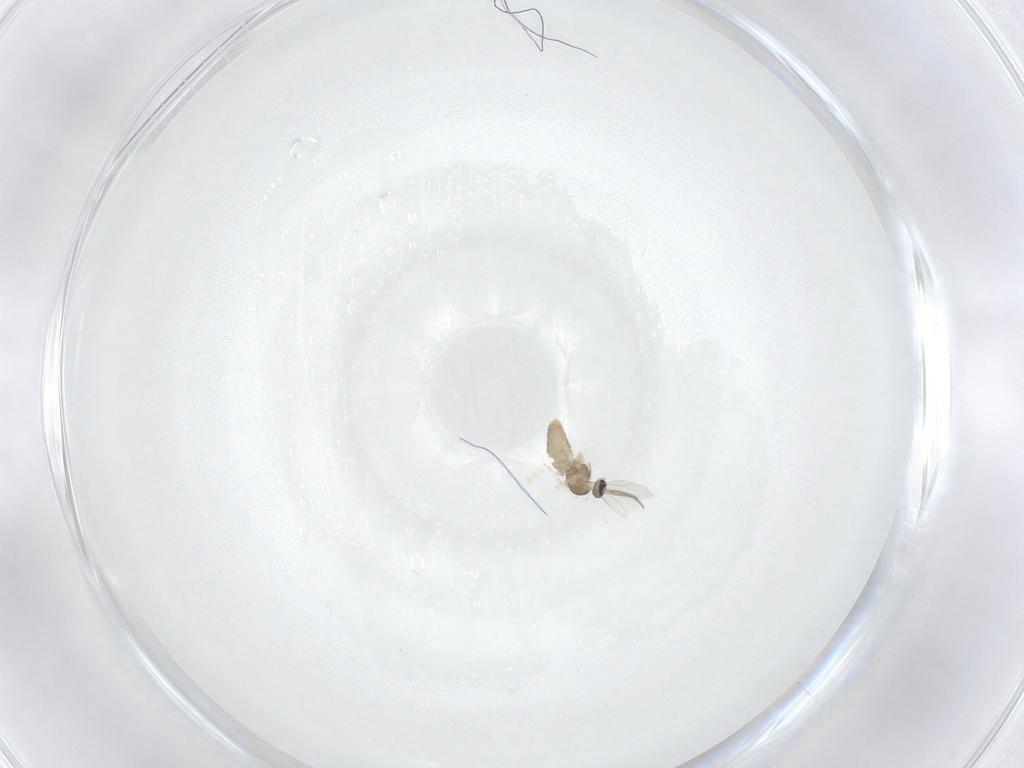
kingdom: Animalia
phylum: Arthropoda
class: Insecta
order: Diptera
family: Cecidomyiidae
